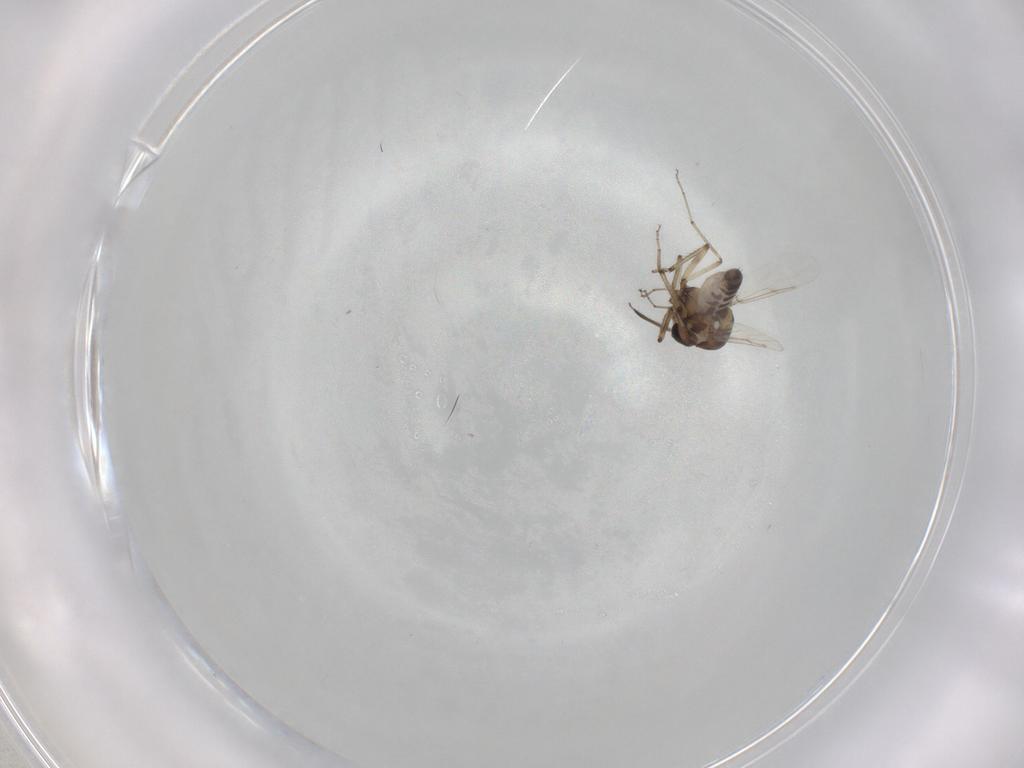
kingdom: Animalia
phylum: Arthropoda
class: Insecta
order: Diptera
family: Ceratopogonidae
